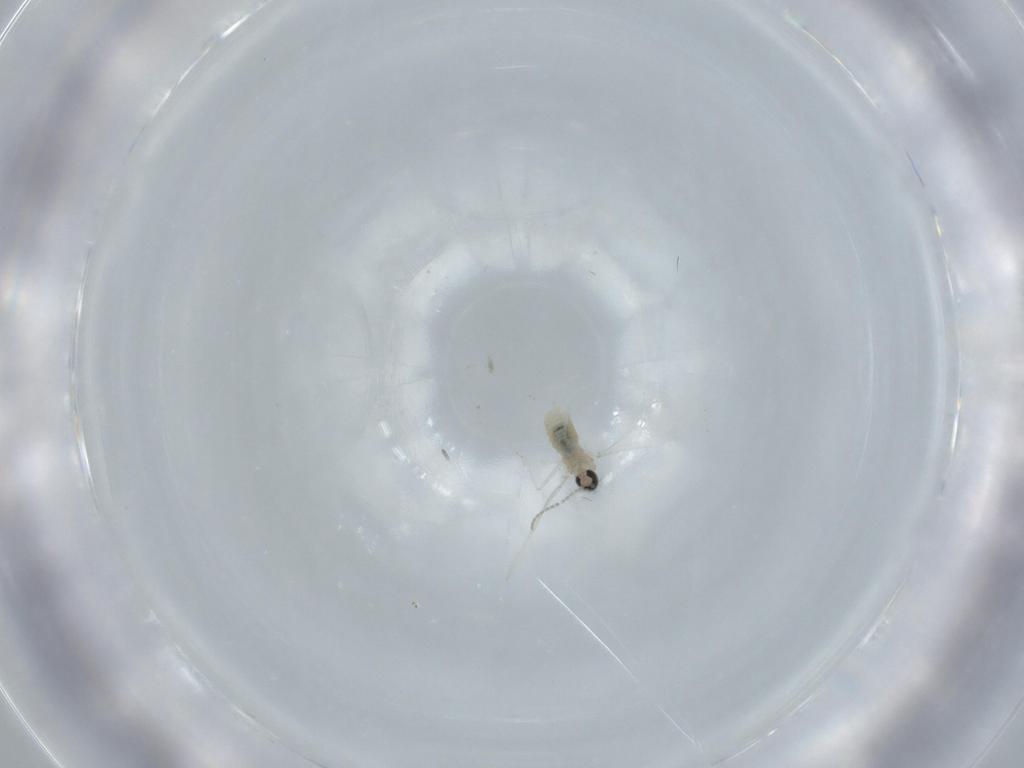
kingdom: Animalia
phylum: Arthropoda
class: Insecta
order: Diptera
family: Cecidomyiidae
